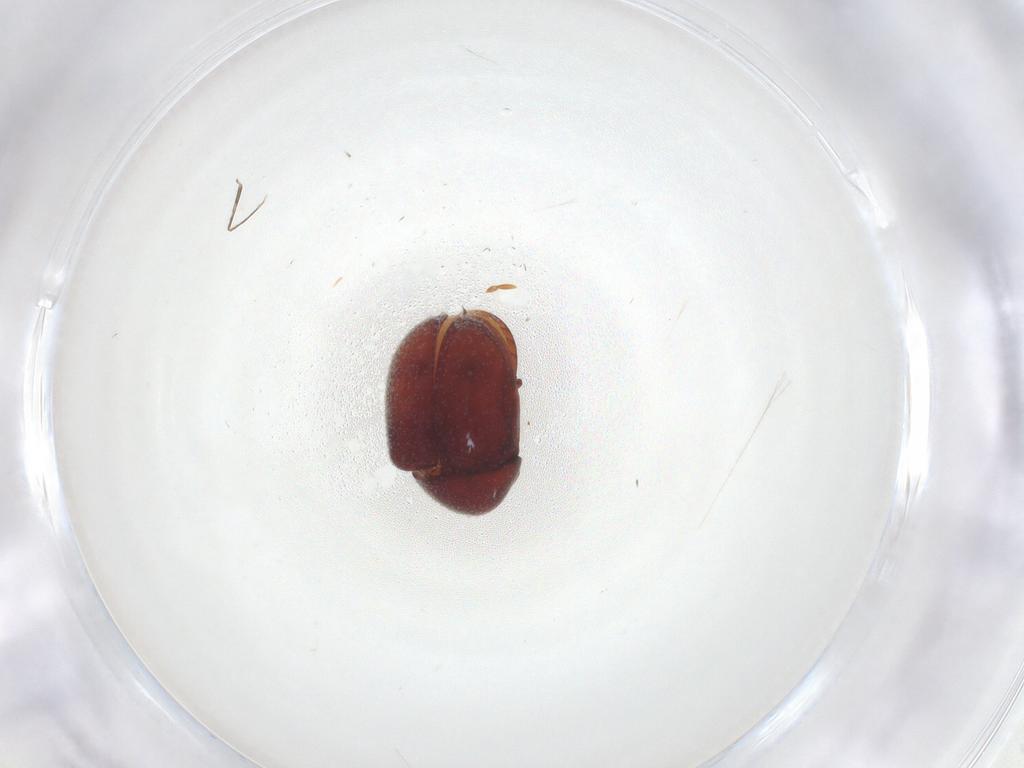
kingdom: Animalia
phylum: Arthropoda
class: Insecta
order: Coleoptera
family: Ptinidae
